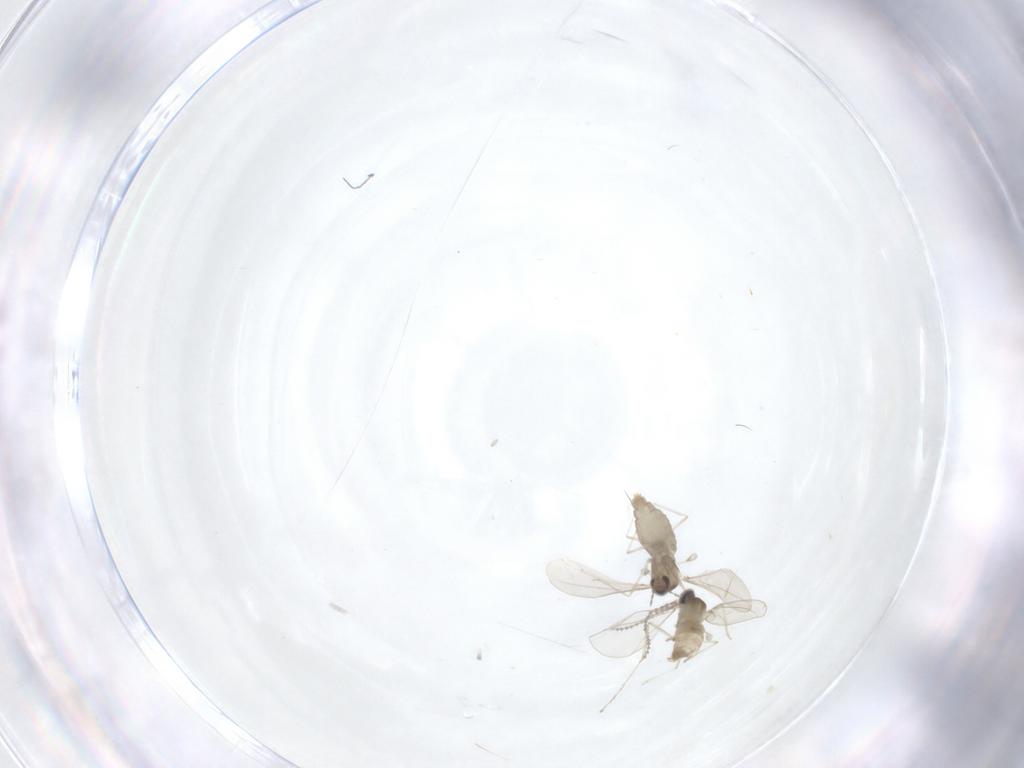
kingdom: Animalia
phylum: Arthropoda
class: Insecta
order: Diptera
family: Cecidomyiidae
